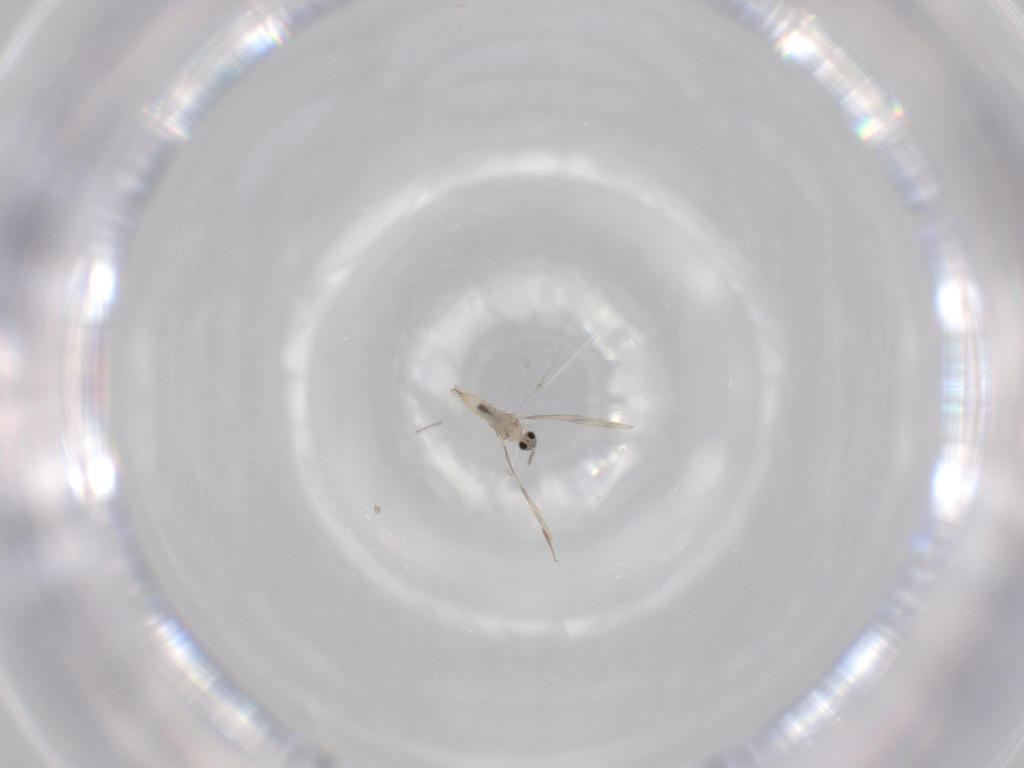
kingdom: Animalia
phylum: Arthropoda
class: Insecta
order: Diptera
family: Cecidomyiidae
